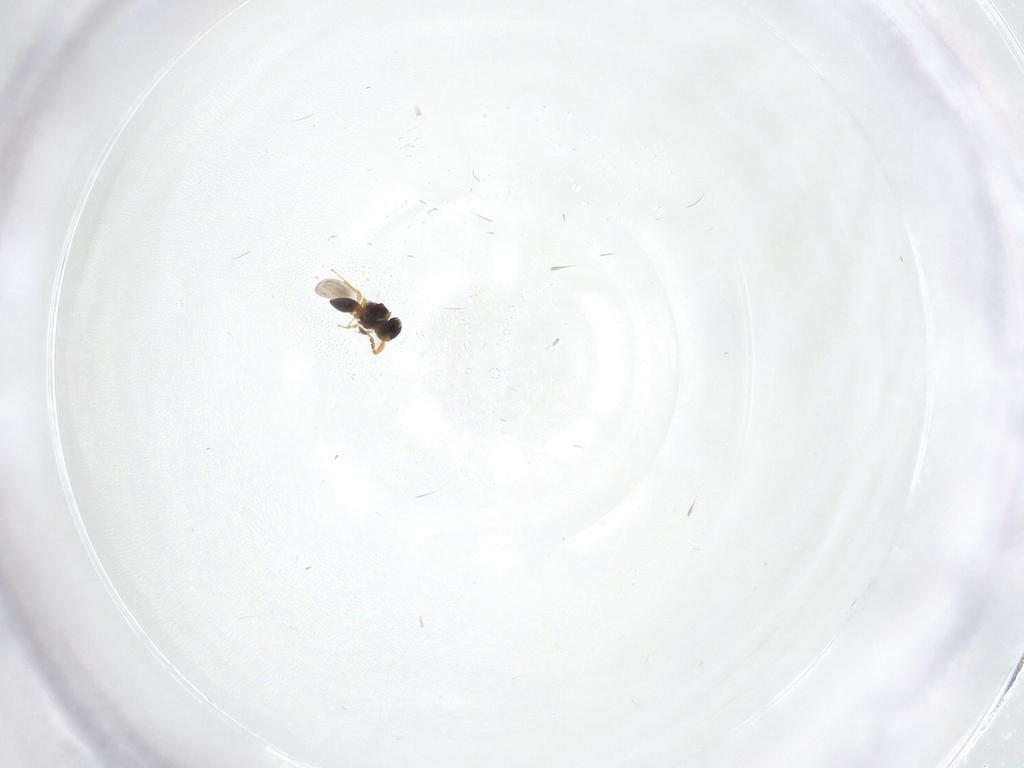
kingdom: Animalia
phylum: Arthropoda
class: Insecta
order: Hymenoptera
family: Platygastridae
